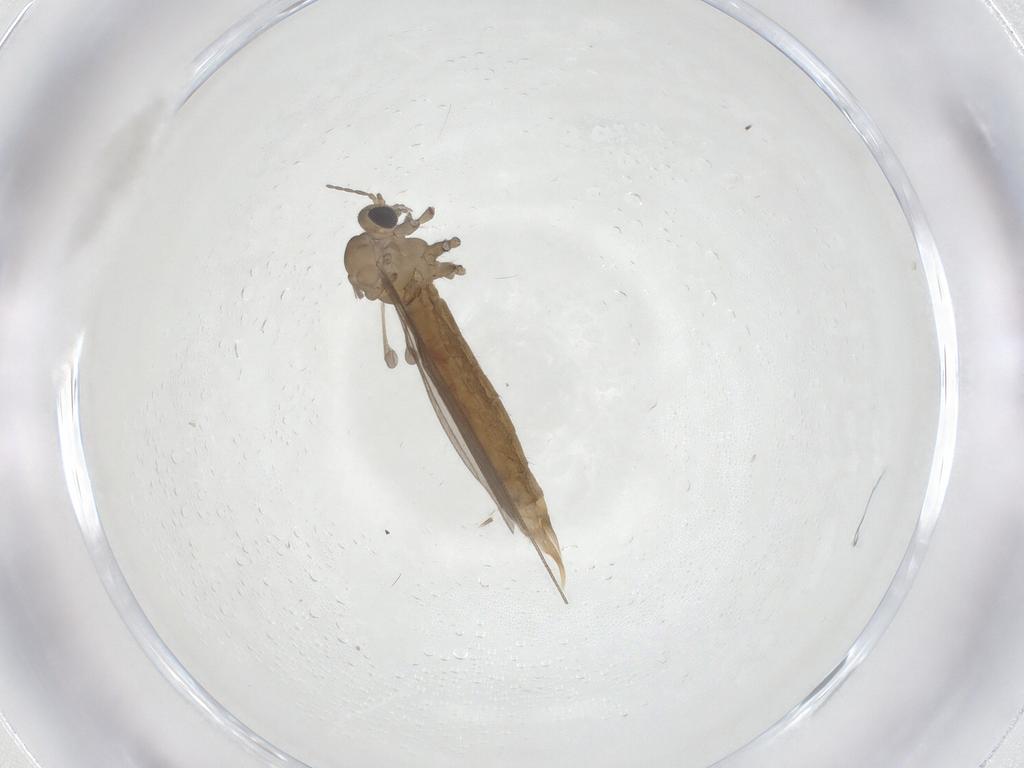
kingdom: Animalia
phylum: Arthropoda
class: Insecta
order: Diptera
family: Limoniidae
